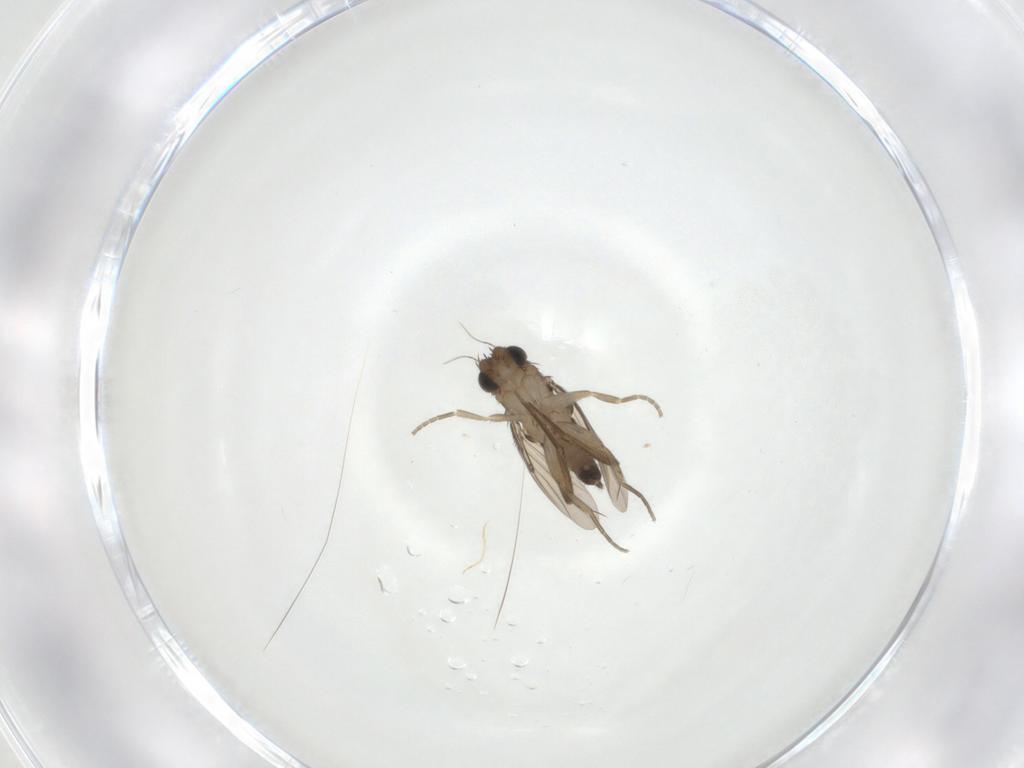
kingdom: Animalia
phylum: Arthropoda
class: Insecta
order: Diptera
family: Phoridae
